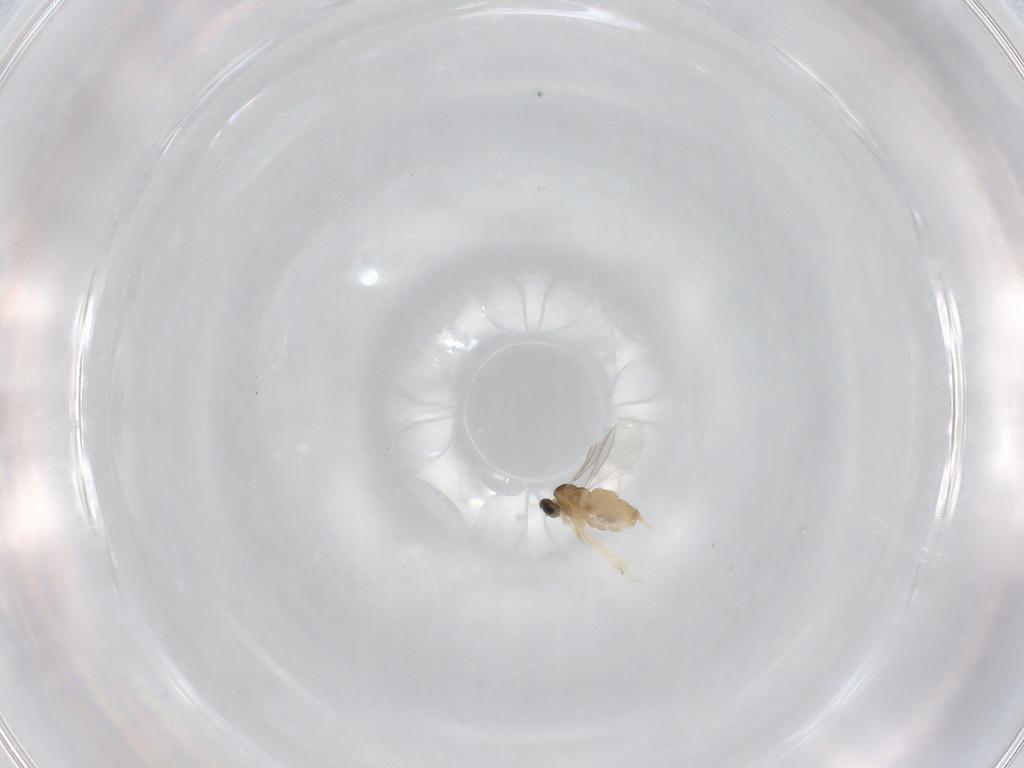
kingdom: Animalia
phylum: Arthropoda
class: Insecta
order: Diptera
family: Cecidomyiidae
